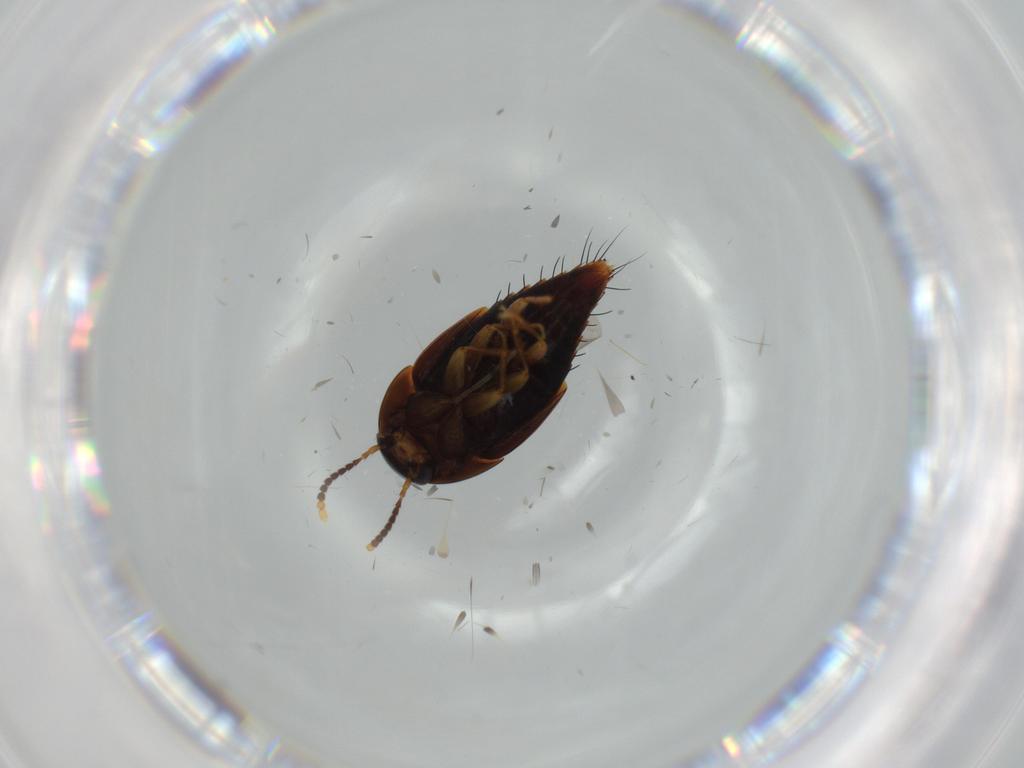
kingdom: Animalia
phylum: Arthropoda
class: Insecta
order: Coleoptera
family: Staphylinidae
